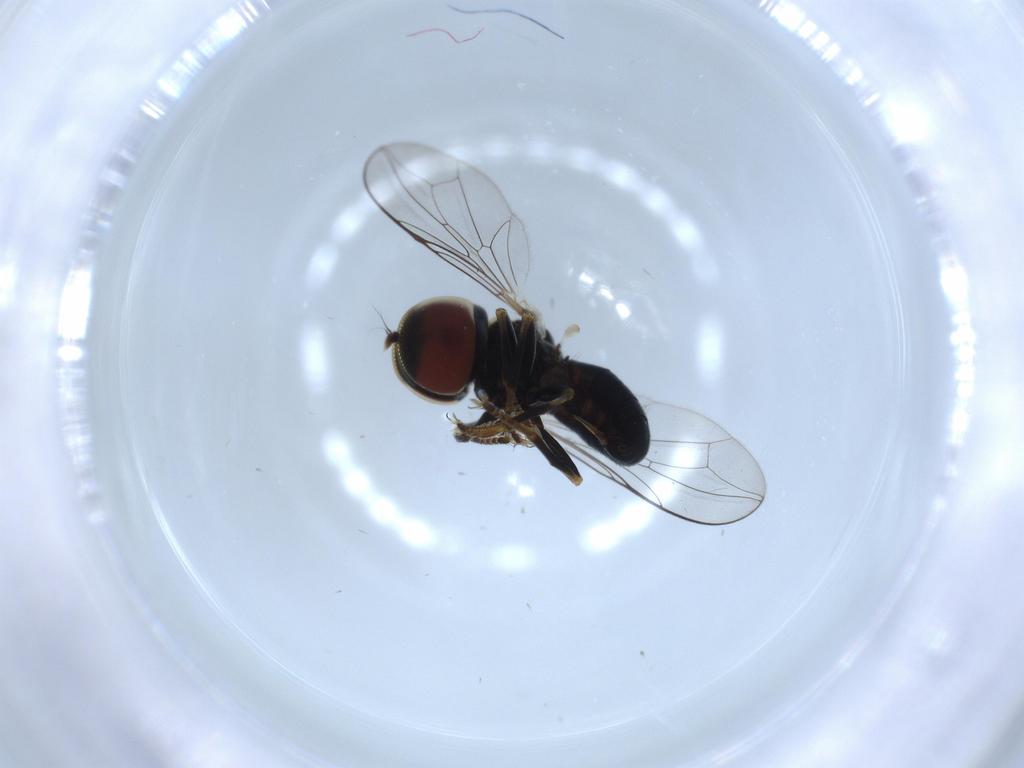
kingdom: Animalia
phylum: Arthropoda
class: Insecta
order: Diptera
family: Pipunculidae
